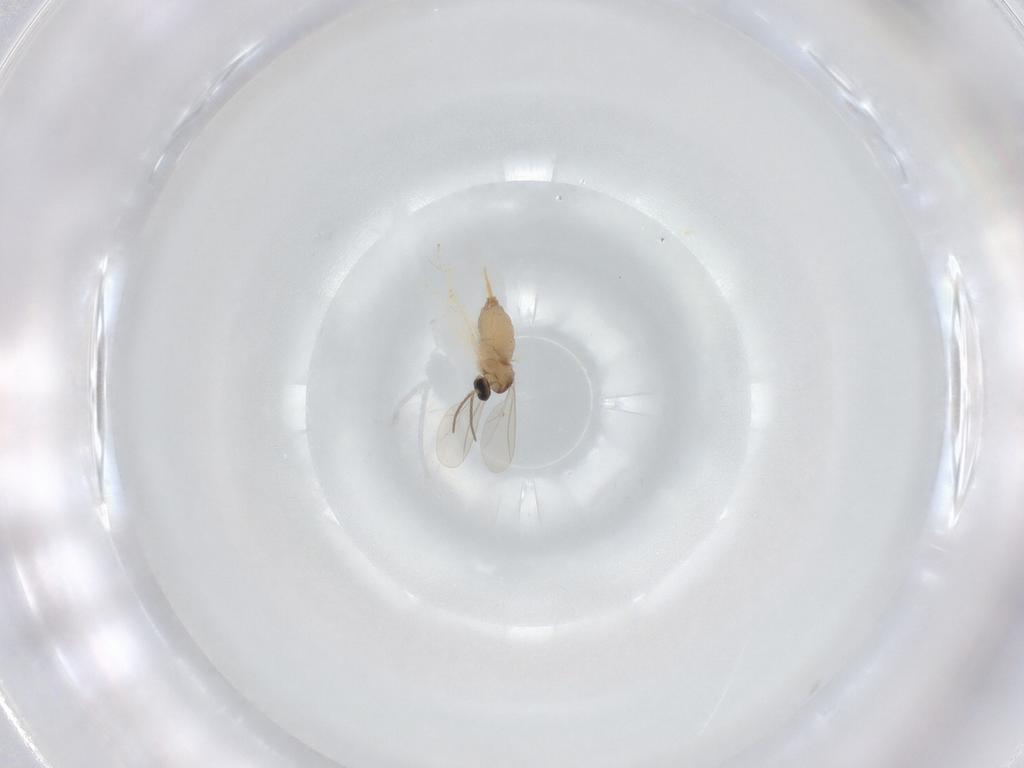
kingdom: Animalia
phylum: Arthropoda
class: Insecta
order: Diptera
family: Cecidomyiidae
